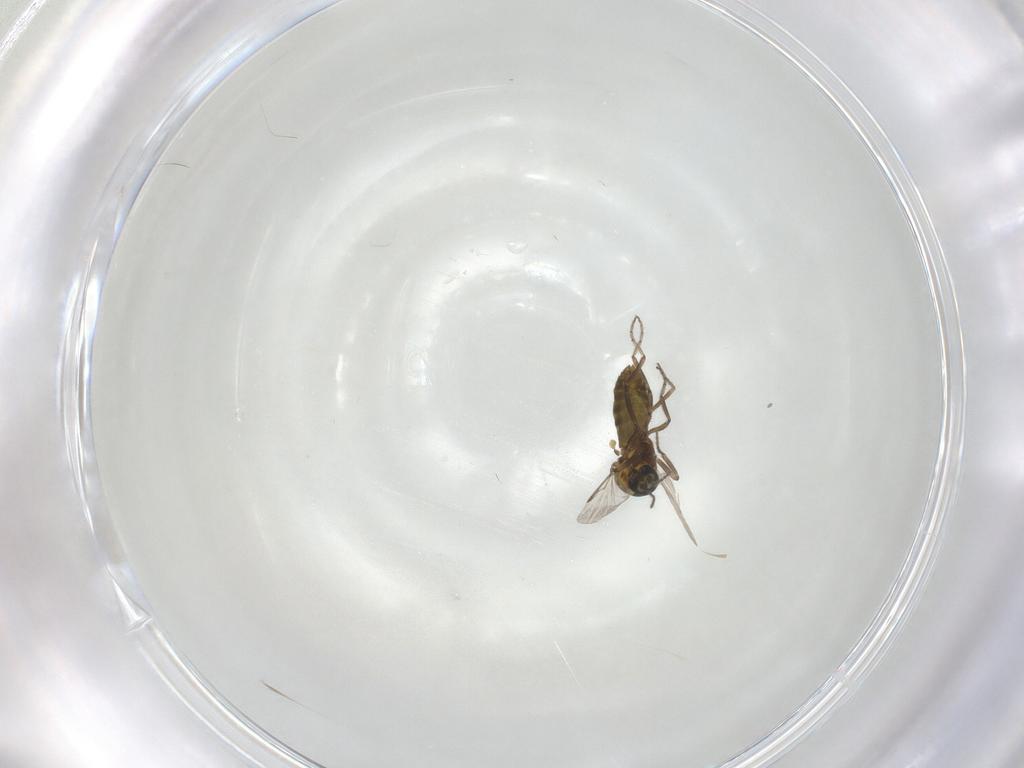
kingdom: Animalia
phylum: Arthropoda
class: Insecta
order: Diptera
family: Chironomidae
